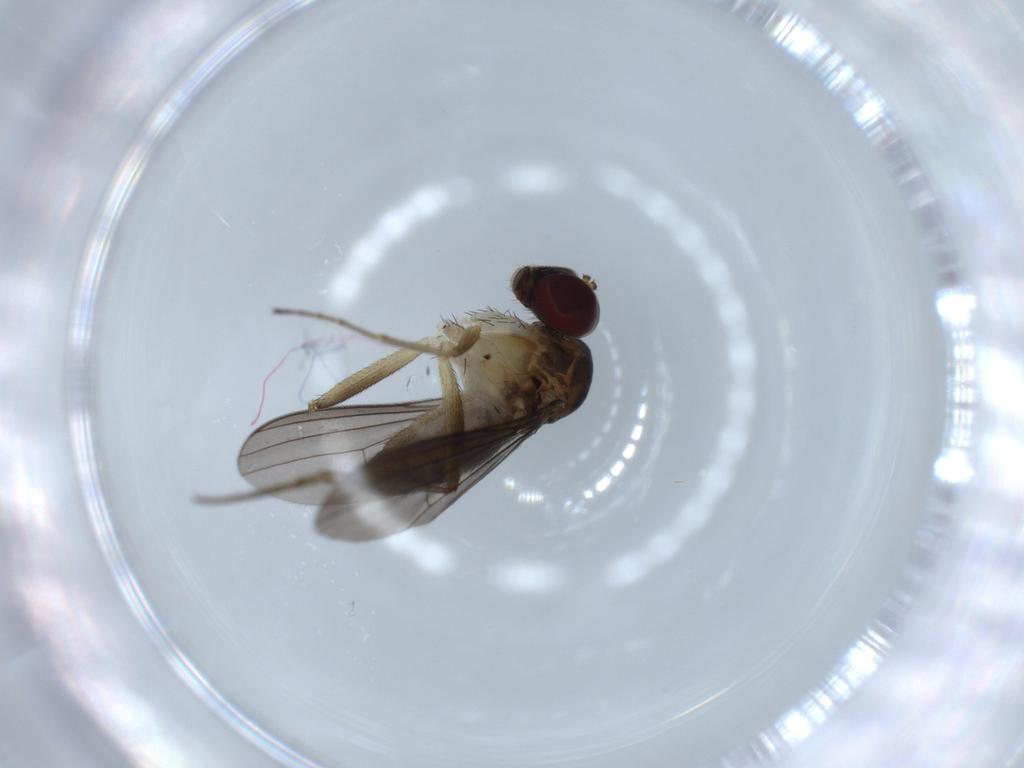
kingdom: Animalia
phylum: Arthropoda
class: Insecta
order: Diptera
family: Dolichopodidae
